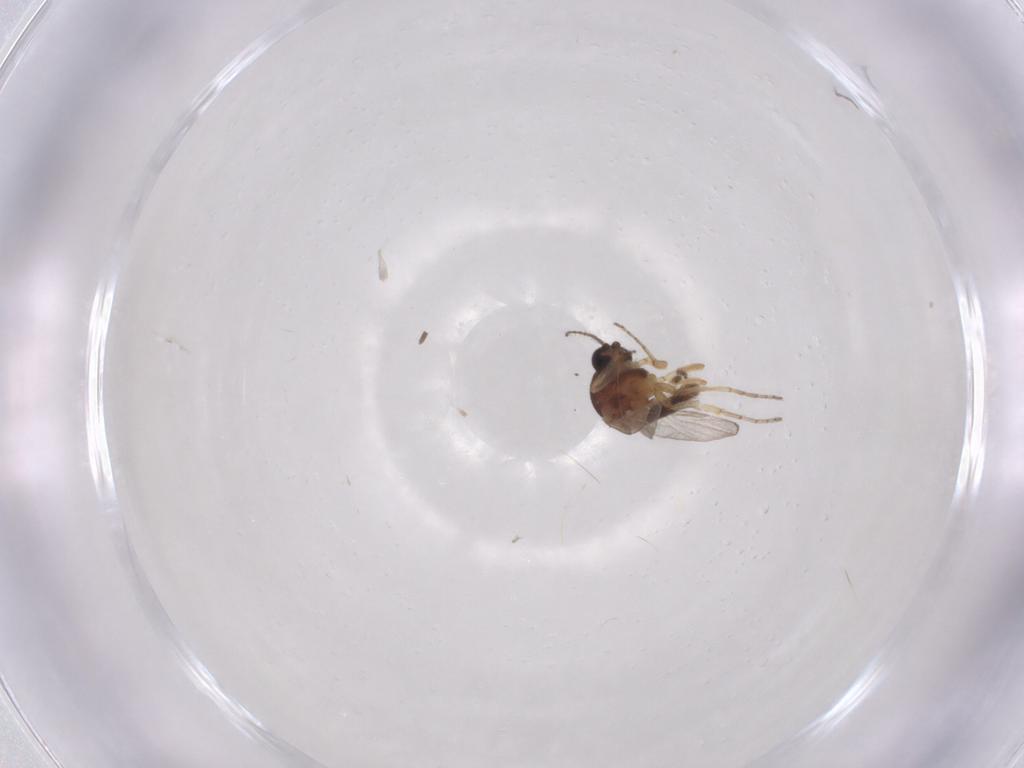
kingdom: Animalia
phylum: Arthropoda
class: Insecta
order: Diptera
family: Ceratopogonidae
